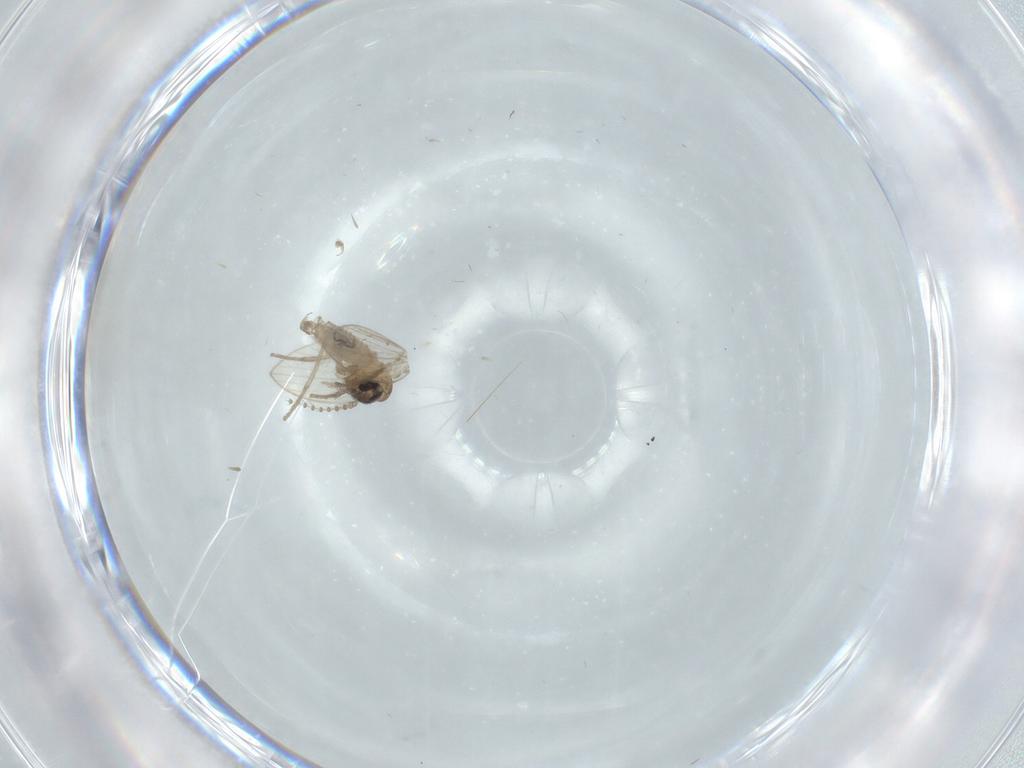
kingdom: Animalia
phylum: Arthropoda
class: Insecta
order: Diptera
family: Psychodidae
